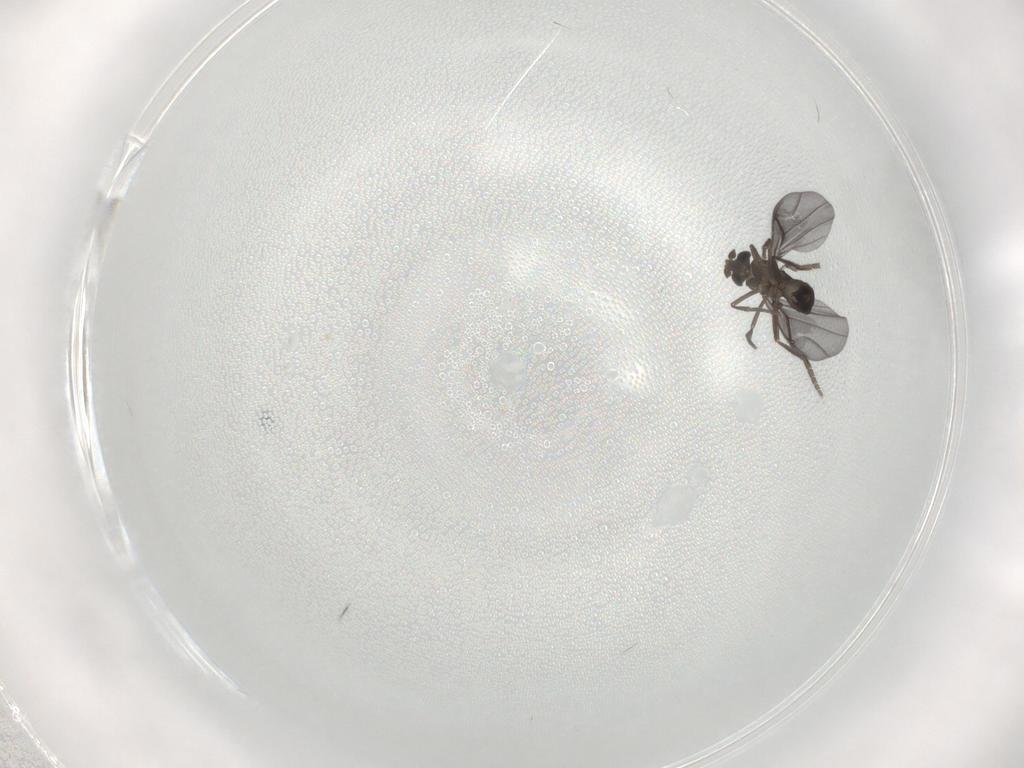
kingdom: Animalia
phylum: Arthropoda
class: Insecta
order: Diptera
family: Phoridae
